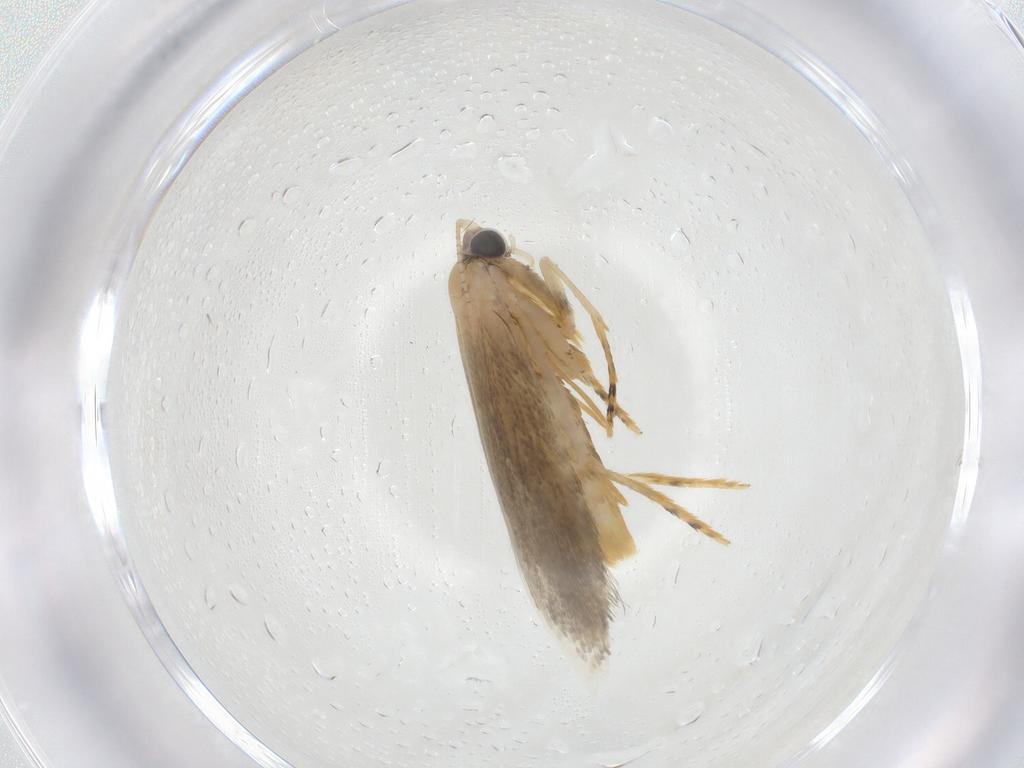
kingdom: Animalia
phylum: Arthropoda
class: Insecta
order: Lepidoptera
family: Tineidae
